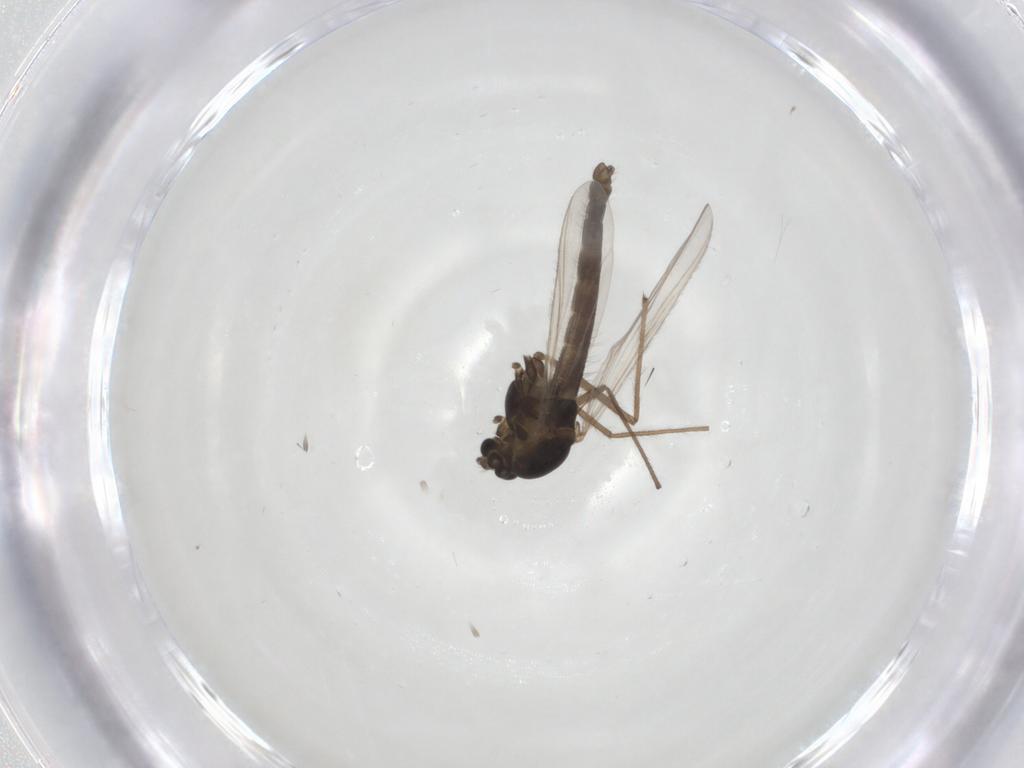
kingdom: Animalia
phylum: Arthropoda
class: Insecta
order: Diptera
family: Chironomidae
